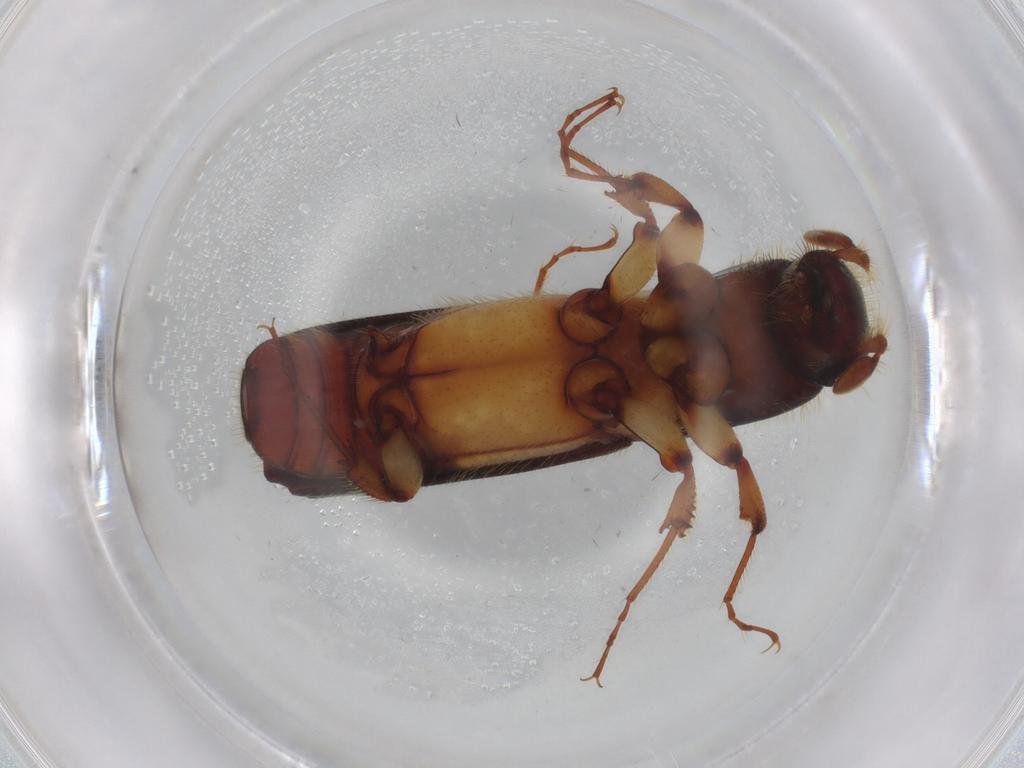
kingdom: Animalia
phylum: Arthropoda
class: Insecta
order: Coleoptera
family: Curculionidae
